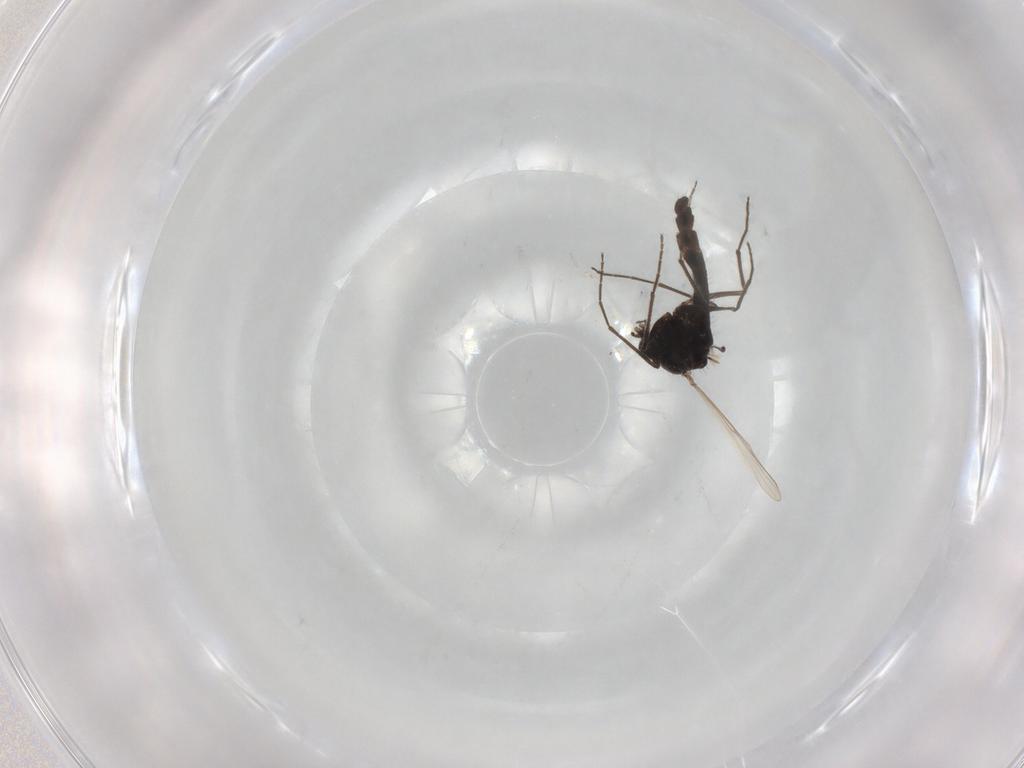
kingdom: Animalia
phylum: Arthropoda
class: Insecta
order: Diptera
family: Chironomidae
